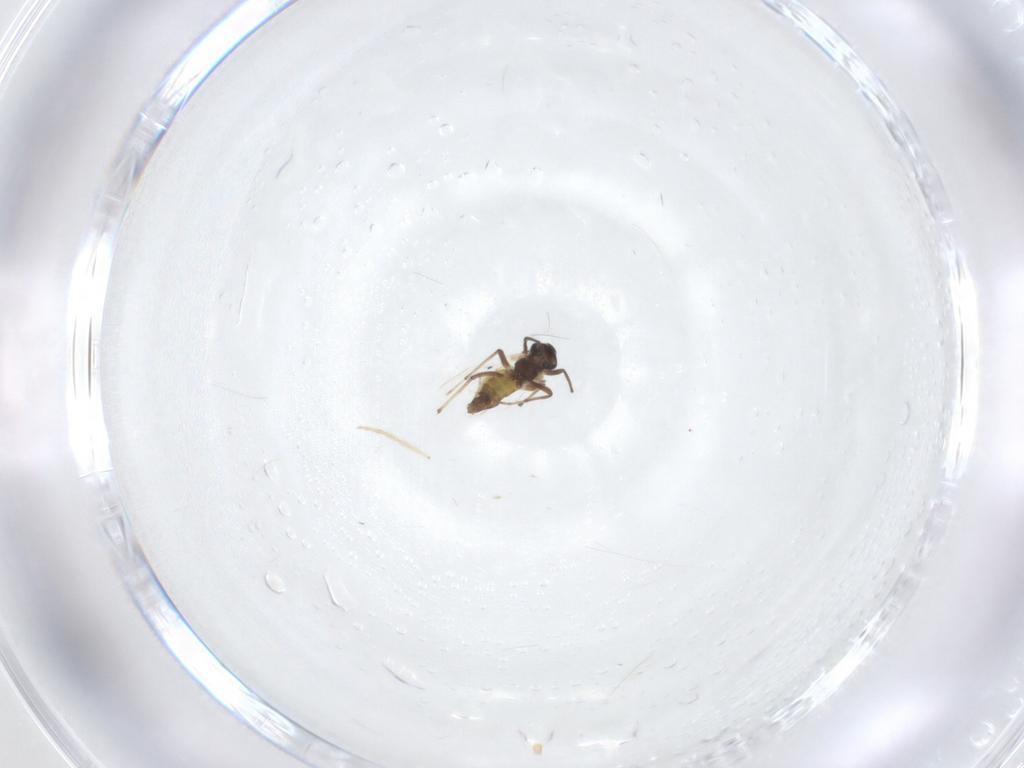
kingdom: Animalia
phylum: Arthropoda
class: Insecta
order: Diptera
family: Chironomidae
